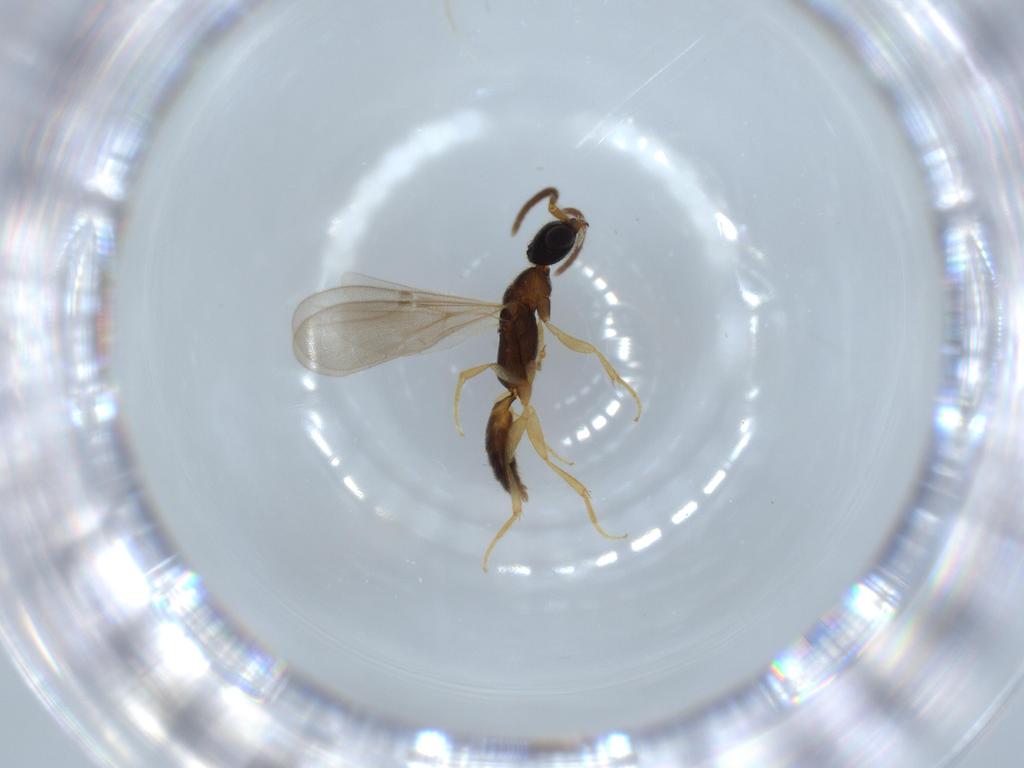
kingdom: Animalia
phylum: Arthropoda
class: Insecta
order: Hymenoptera
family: Bethylidae
